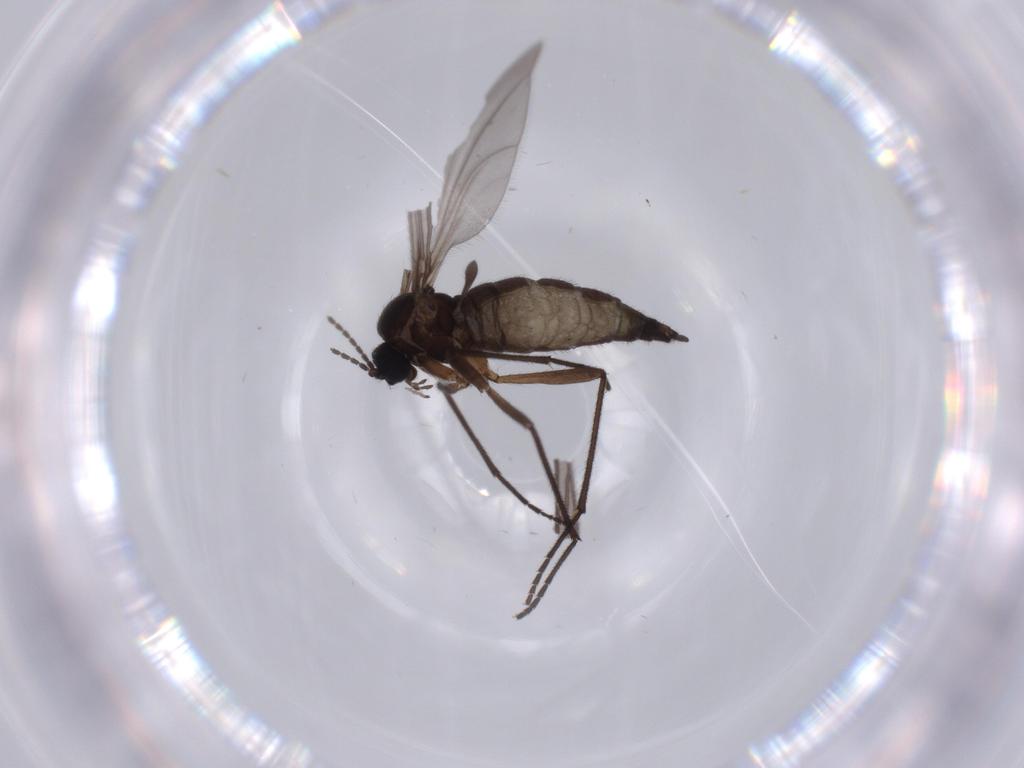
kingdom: Animalia
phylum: Arthropoda
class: Insecta
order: Diptera
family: Sciaridae
